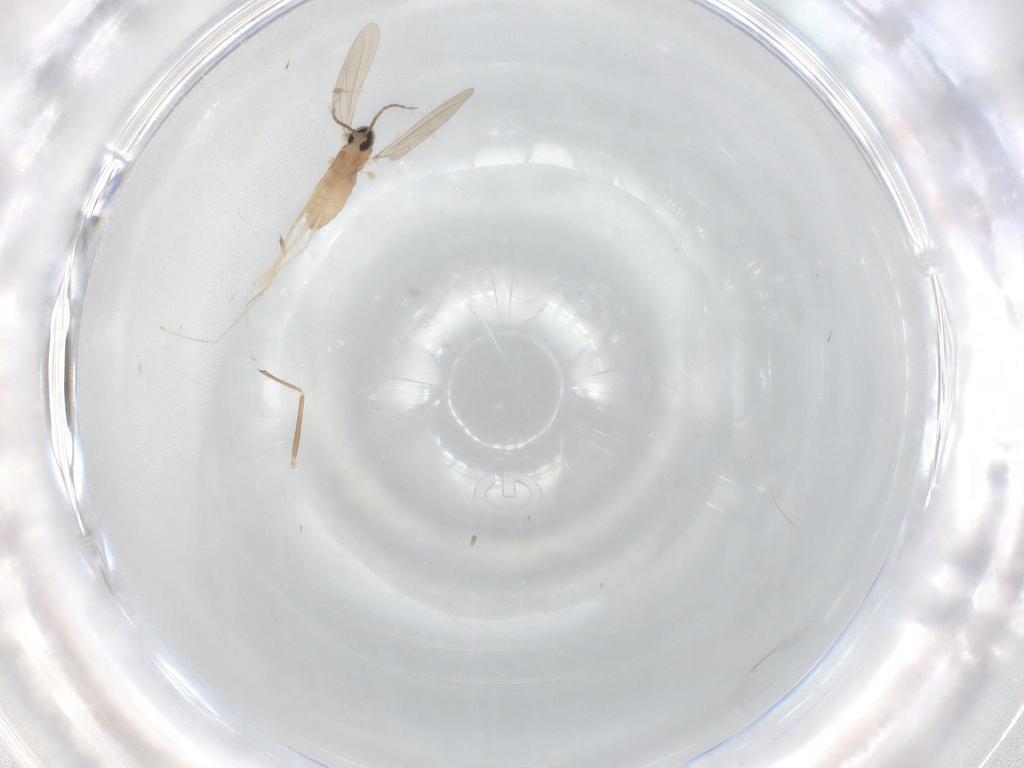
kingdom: Animalia
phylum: Arthropoda
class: Insecta
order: Diptera
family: Cecidomyiidae
